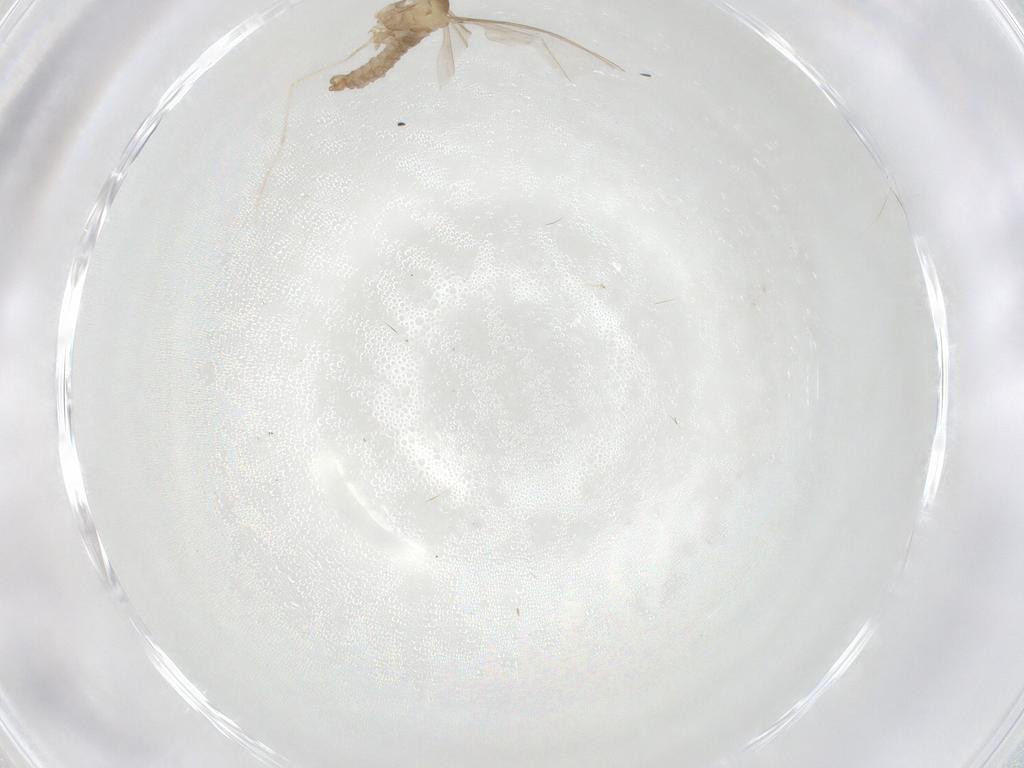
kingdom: Animalia
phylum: Arthropoda
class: Insecta
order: Diptera
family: Cecidomyiidae
